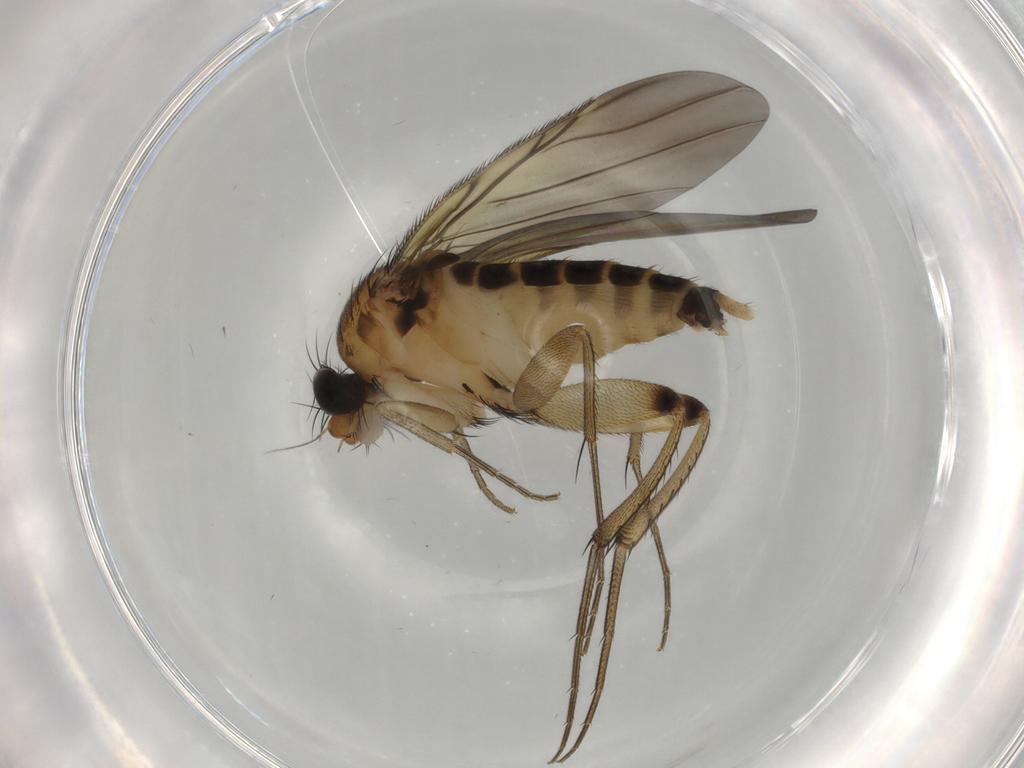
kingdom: Animalia
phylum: Arthropoda
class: Insecta
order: Diptera
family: Phoridae
